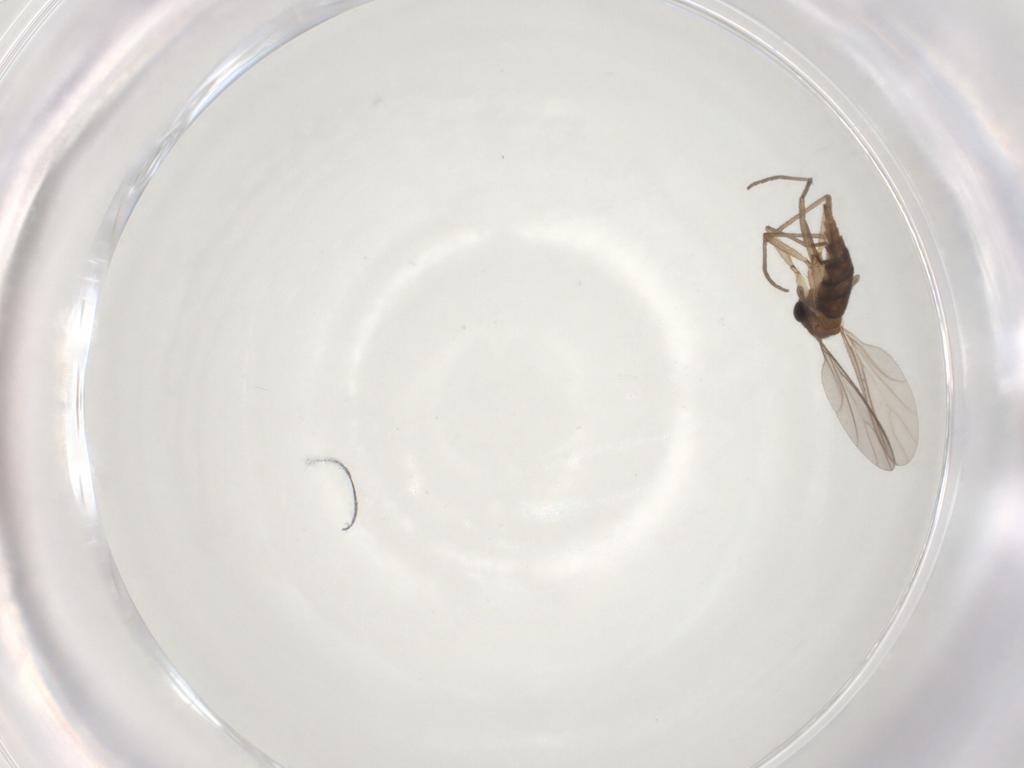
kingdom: Animalia
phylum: Arthropoda
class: Insecta
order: Diptera
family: Sciaridae
